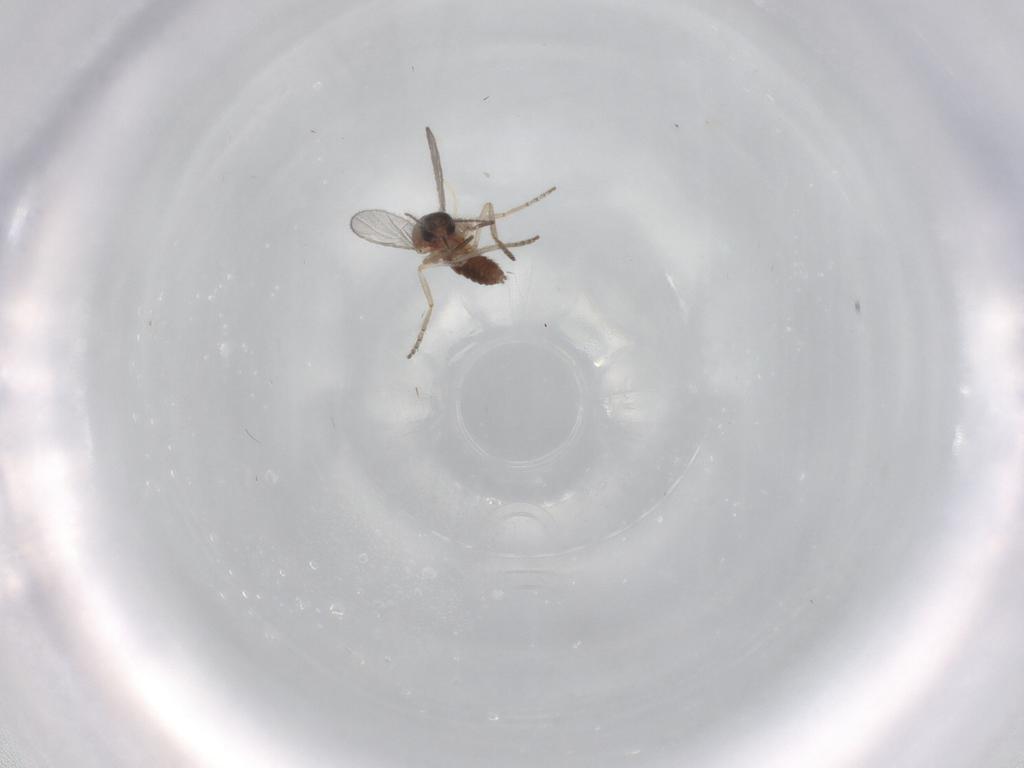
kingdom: Animalia
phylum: Arthropoda
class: Insecta
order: Diptera
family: Ceratopogonidae
